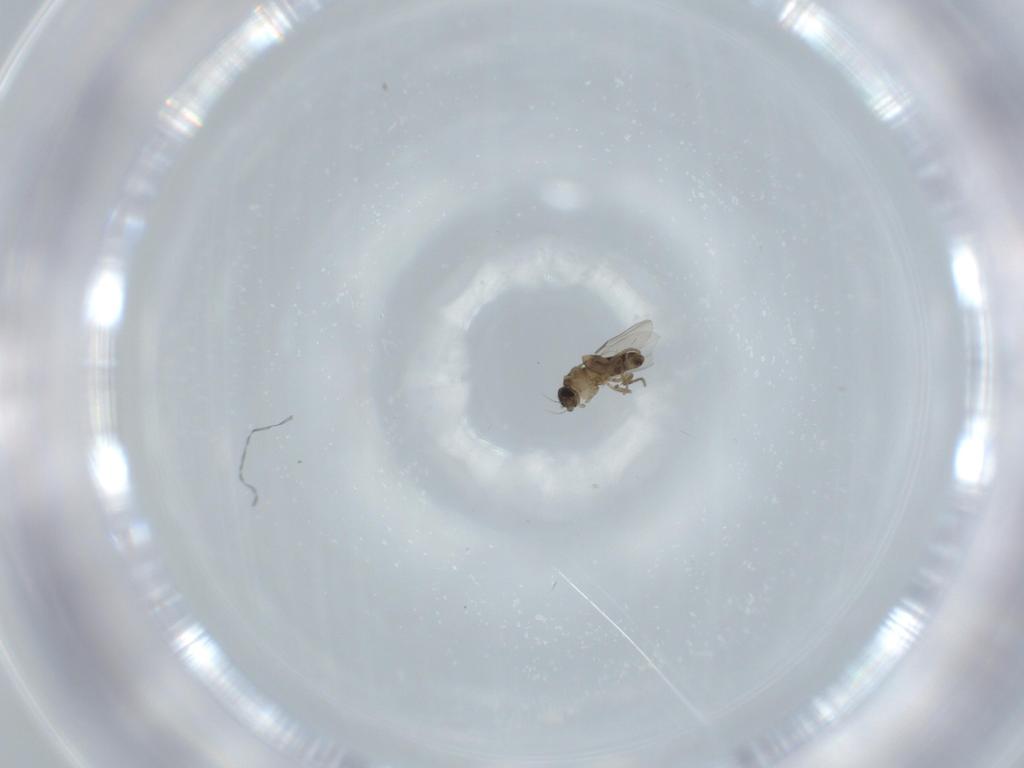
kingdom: Animalia
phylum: Arthropoda
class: Insecta
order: Diptera
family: Phoridae
